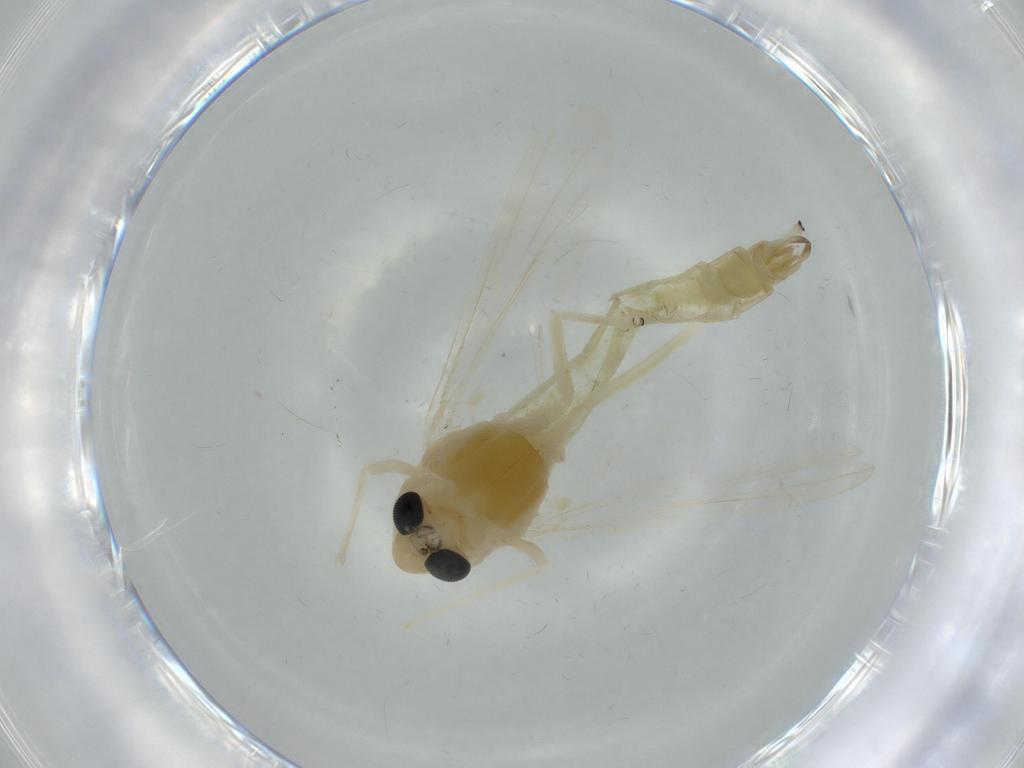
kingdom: Animalia
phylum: Arthropoda
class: Insecta
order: Diptera
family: Chironomidae
